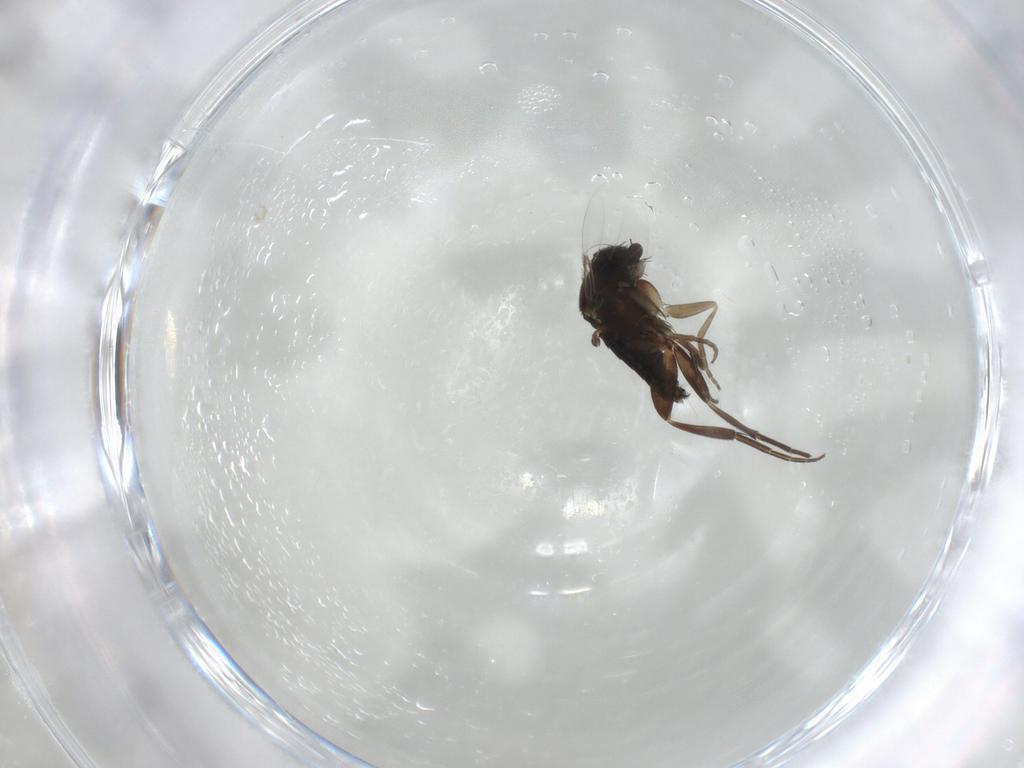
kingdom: Animalia
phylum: Arthropoda
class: Insecta
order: Diptera
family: Phoridae
